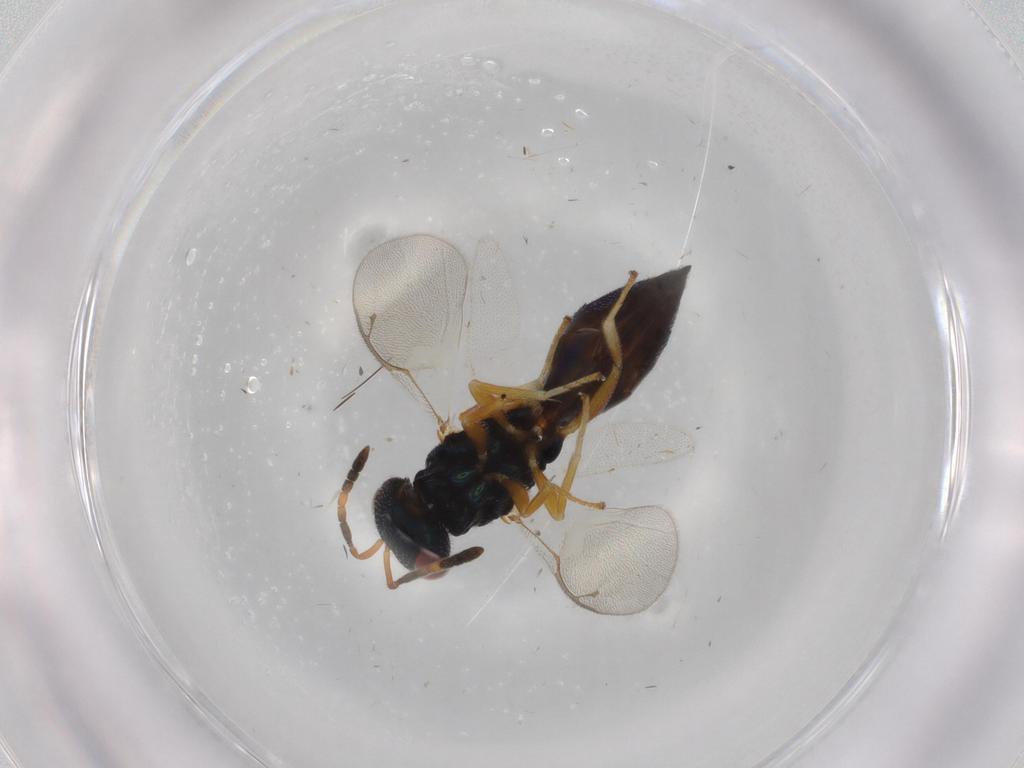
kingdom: Animalia
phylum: Arthropoda
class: Insecta
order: Hymenoptera
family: Pteromalidae
